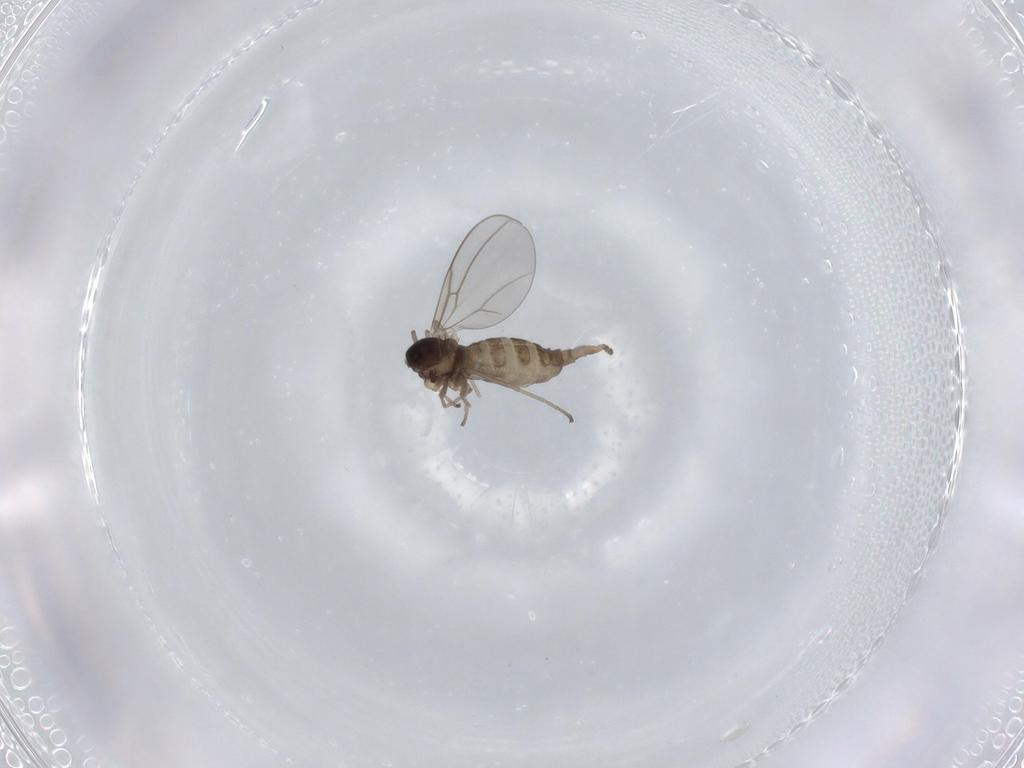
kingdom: Animalia
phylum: Arthropoda
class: Insecta
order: Diptera
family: Cecidomyiidae
